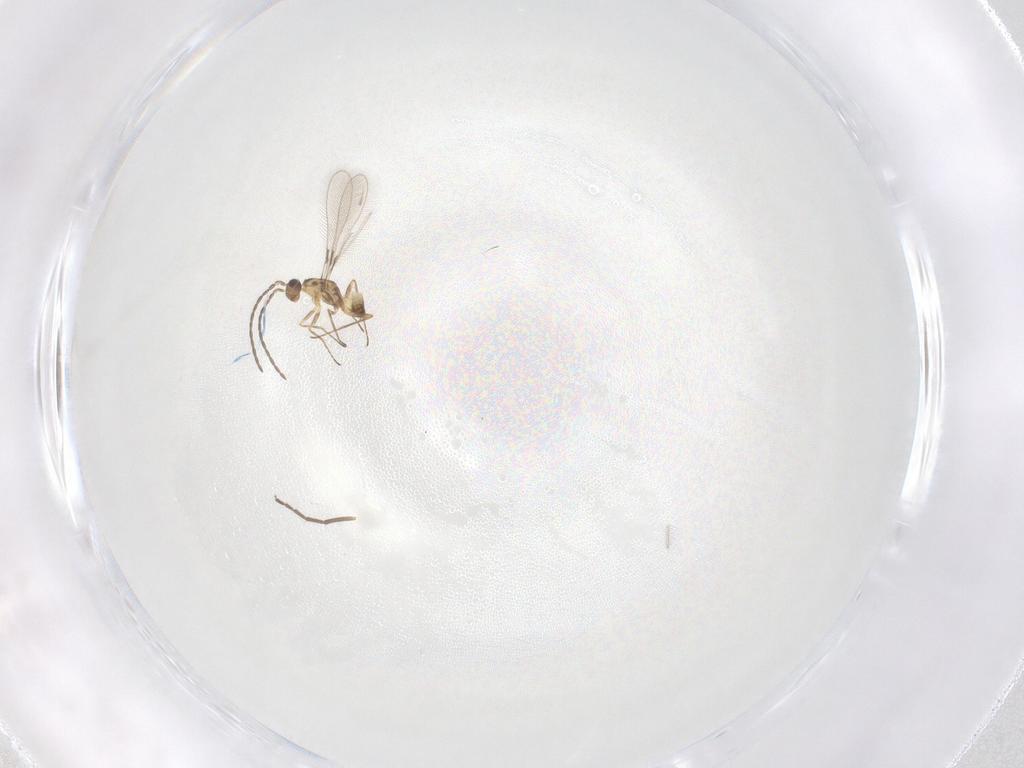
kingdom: Animalia
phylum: Arthropoda
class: Insecta
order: Hymenoptera
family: Mymaridae
